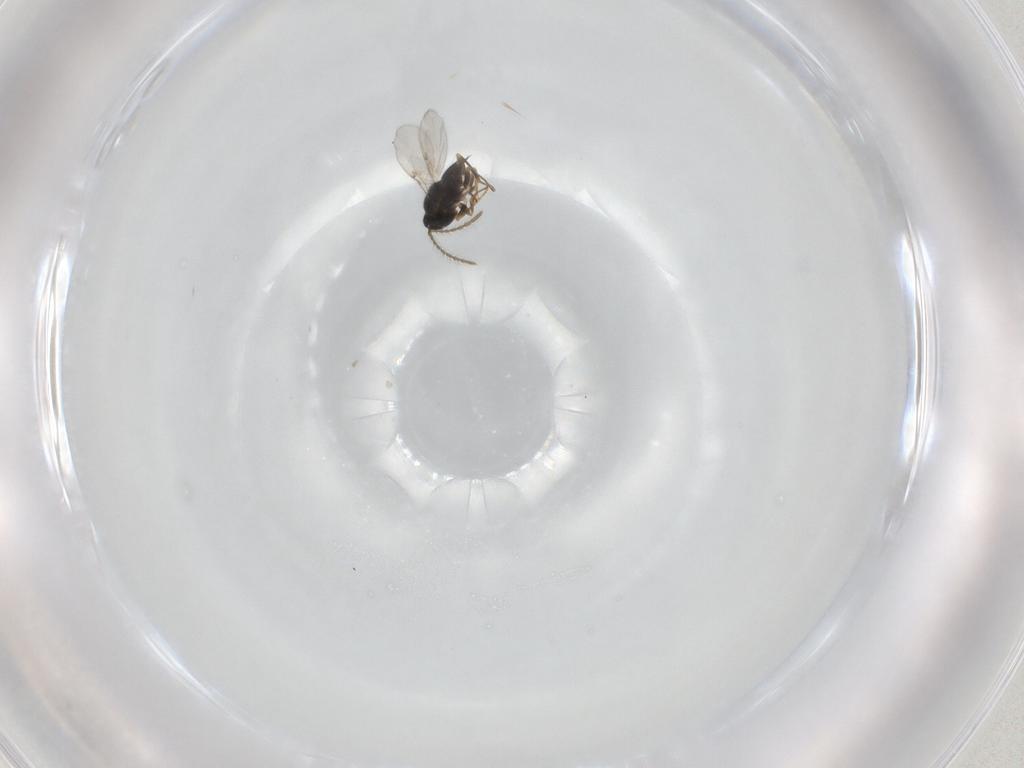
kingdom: Animalia
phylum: Arthropoda
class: Insecta
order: Hymenoptera
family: Encyrtidae
